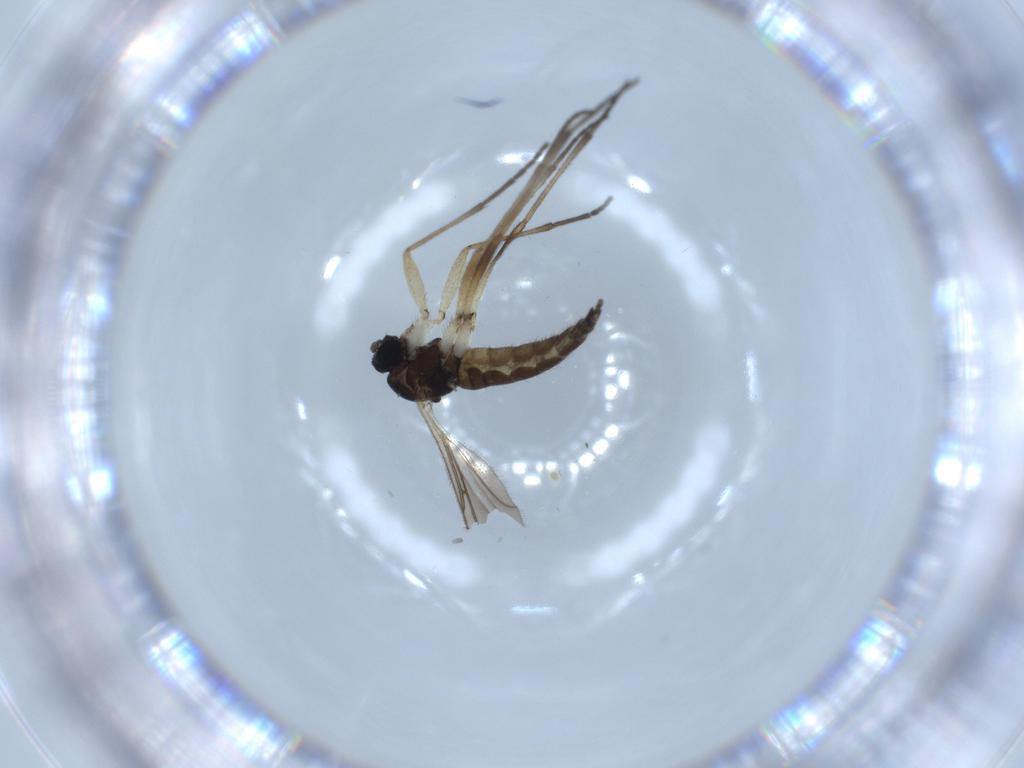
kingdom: Animalia
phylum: Arthropoda
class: Insecta
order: Diptera
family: Sciaridae
